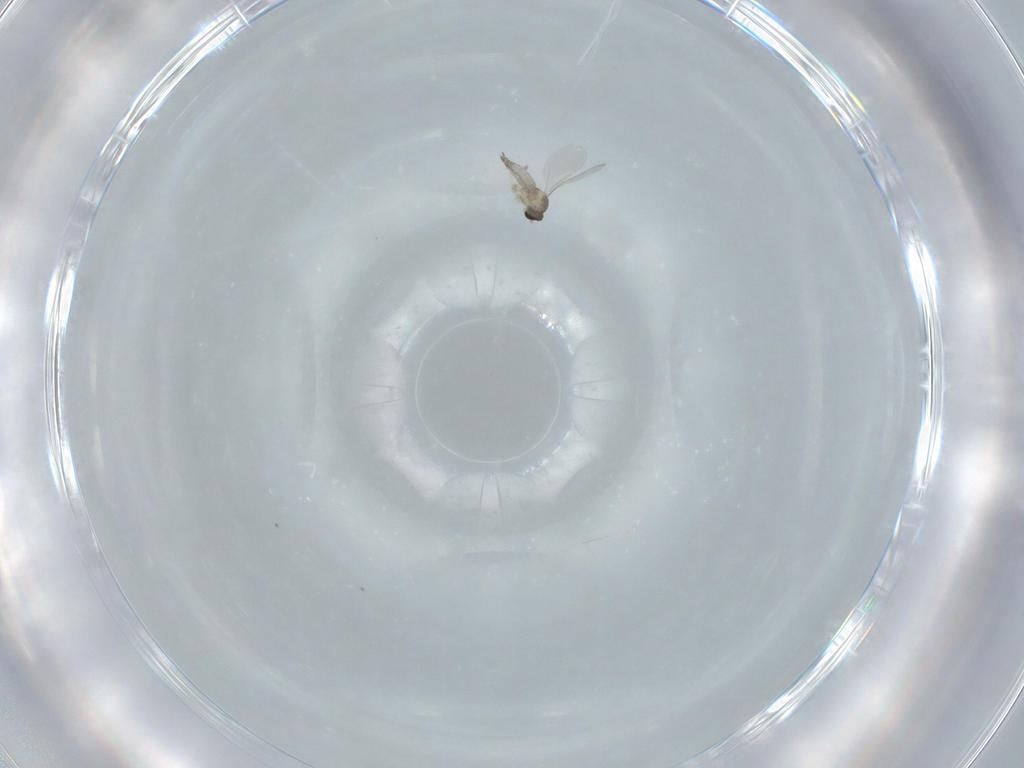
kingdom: Animalia
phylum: Arthropoda
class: Insecta
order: Diptera
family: Cecidomyiidae
